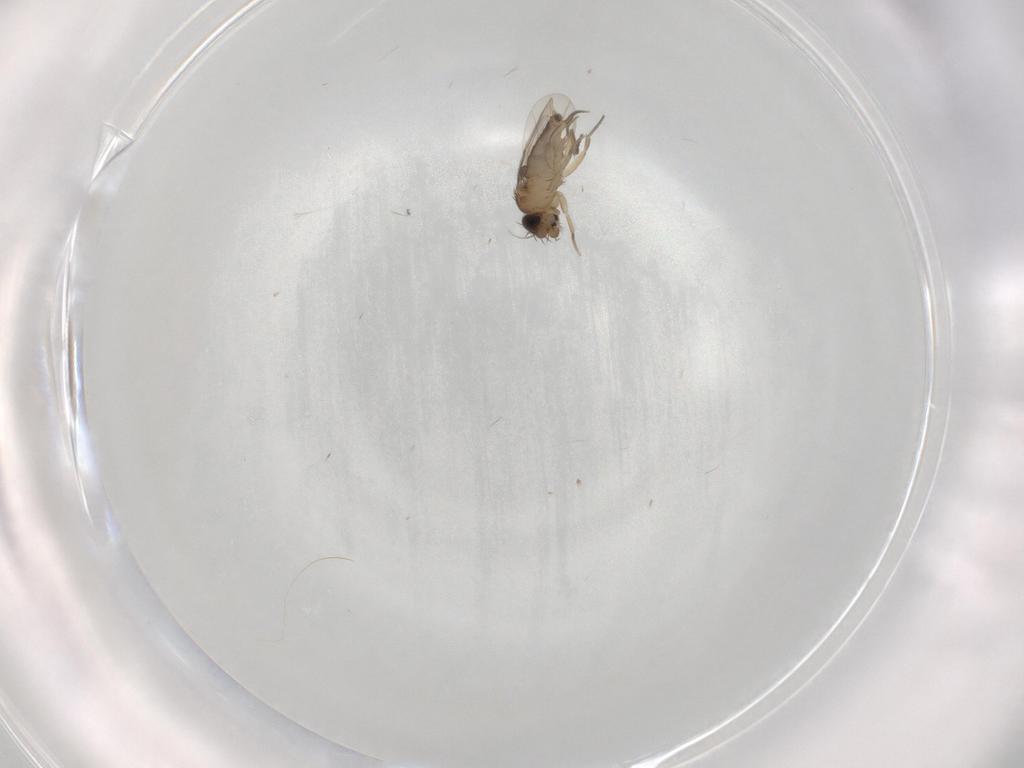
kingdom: Animalia
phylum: Arthropoda
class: Insecta
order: Diptera
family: Phoridae
